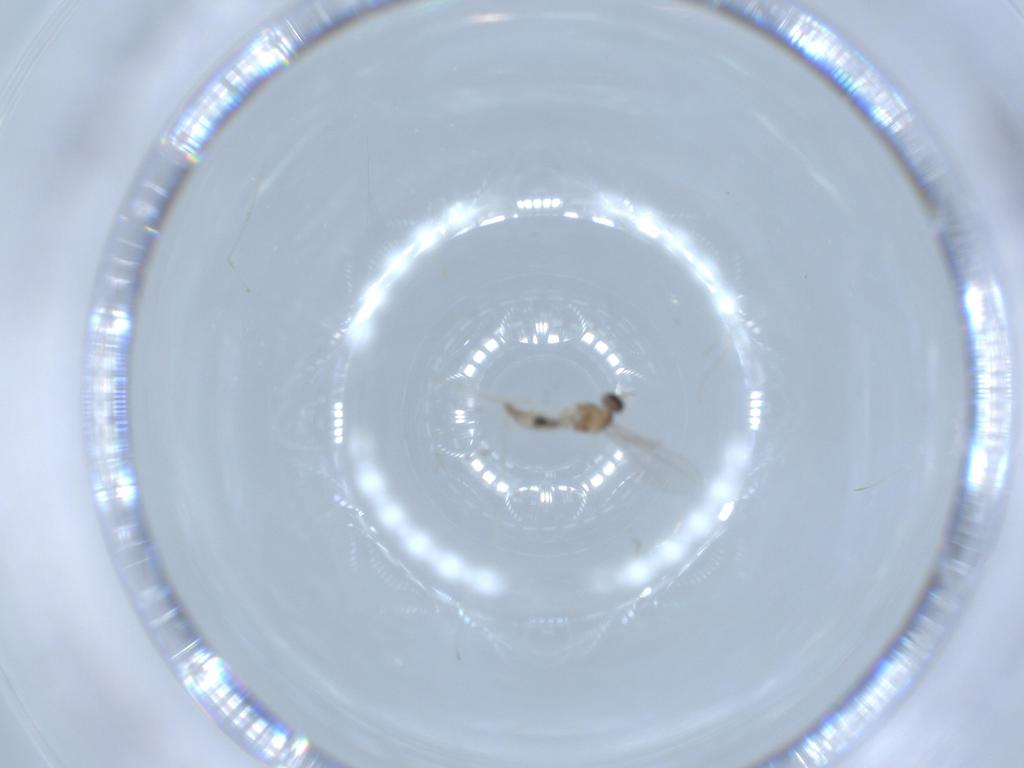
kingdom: Animalia
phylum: Arthropoda
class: Insecta
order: Diptera
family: Cecidomyiidae
